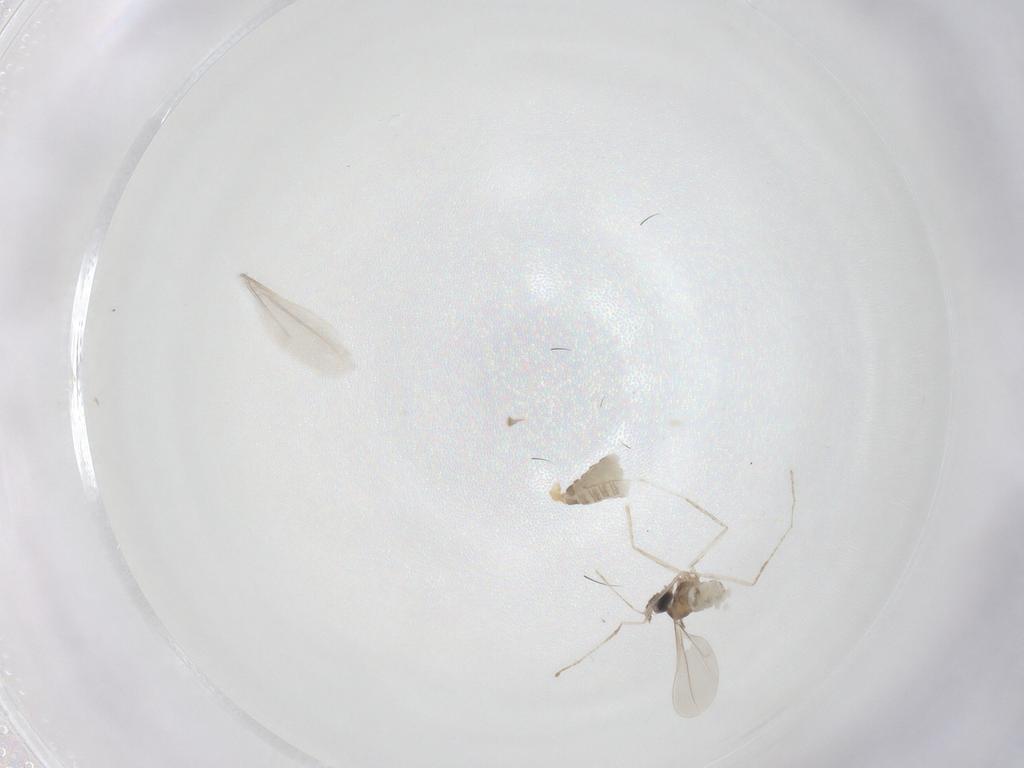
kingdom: Animalia
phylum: Arthropoda
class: Insecta
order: Diptera
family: Cecidomyiidae
